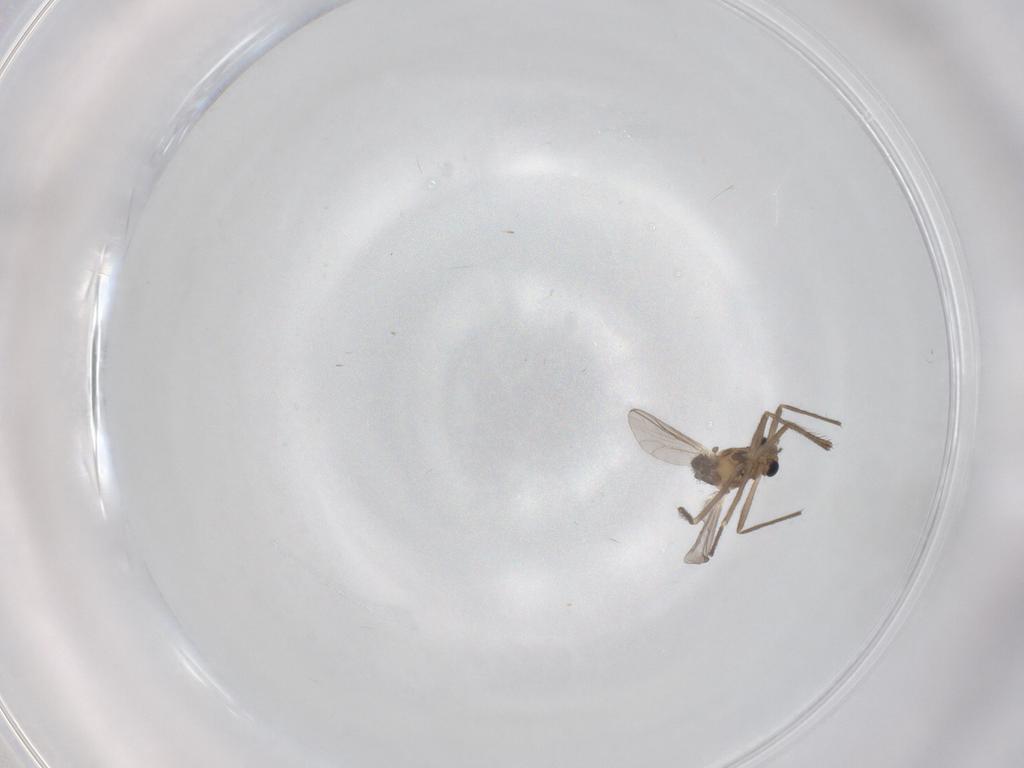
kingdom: Animalia
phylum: Arthropoda
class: Insecta
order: Diptera
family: Chironomidae
